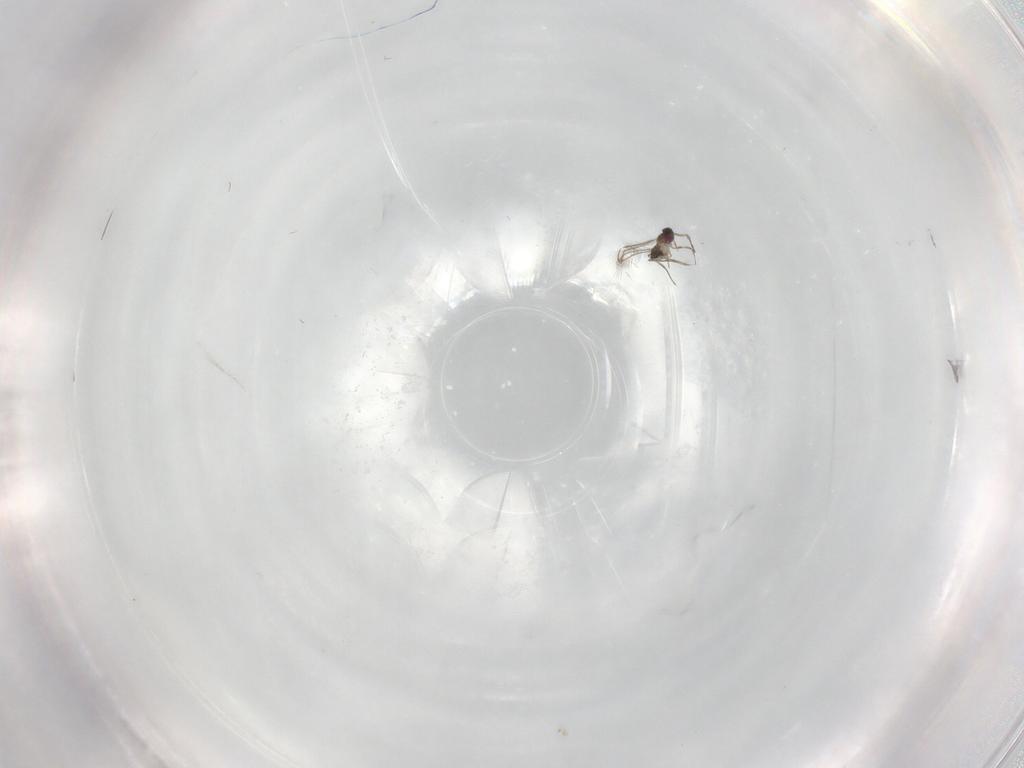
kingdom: Animalia
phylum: Arthropoda
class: Insecta
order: Hymenoptera
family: Mymaridae
